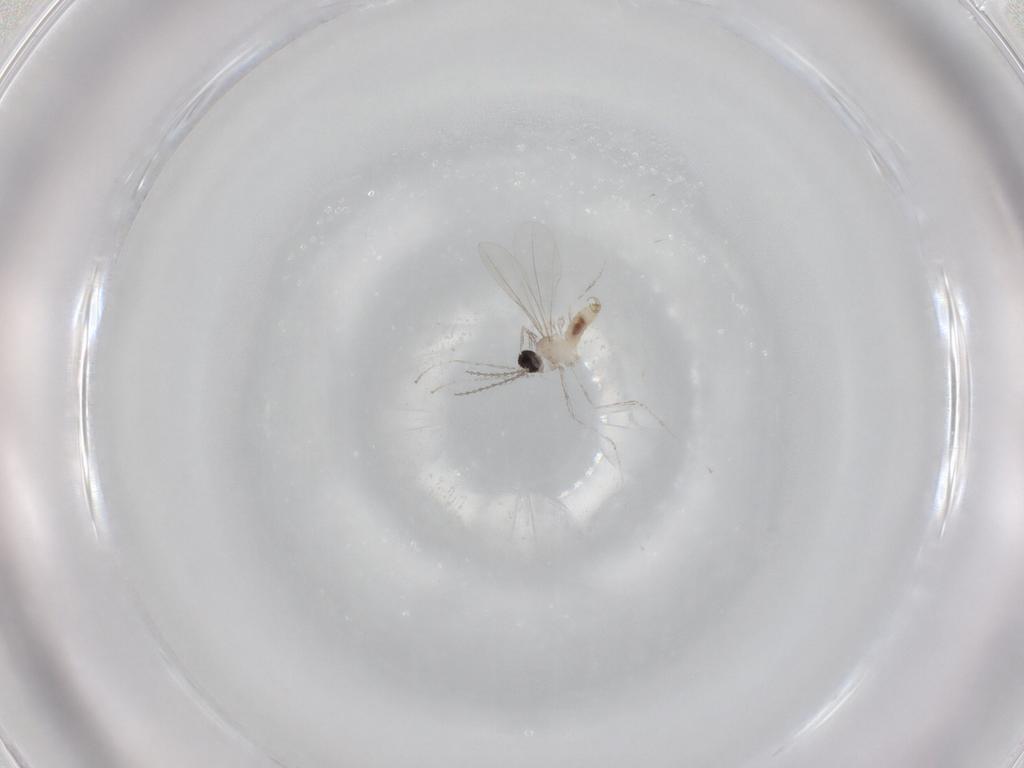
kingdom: Animalia
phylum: Arthropoda
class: Insecta
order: Diptera
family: Cecidomyiidae
